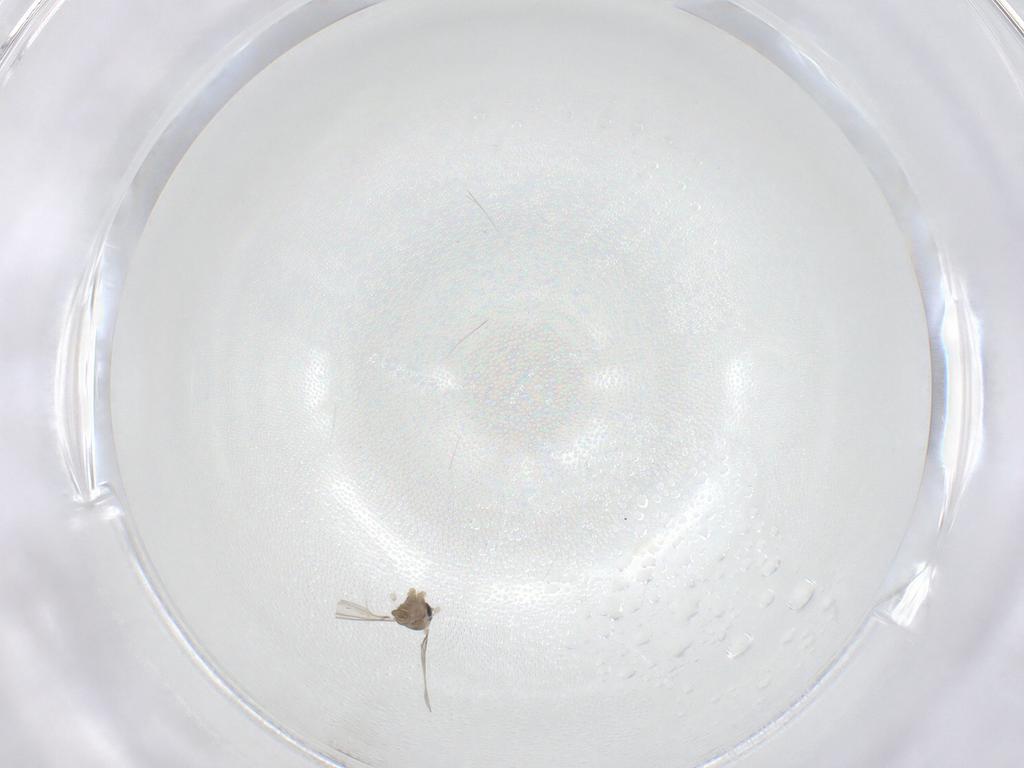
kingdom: Animalia
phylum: Arthropoda
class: Insecta
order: Diptera
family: Cecidomyiidae
